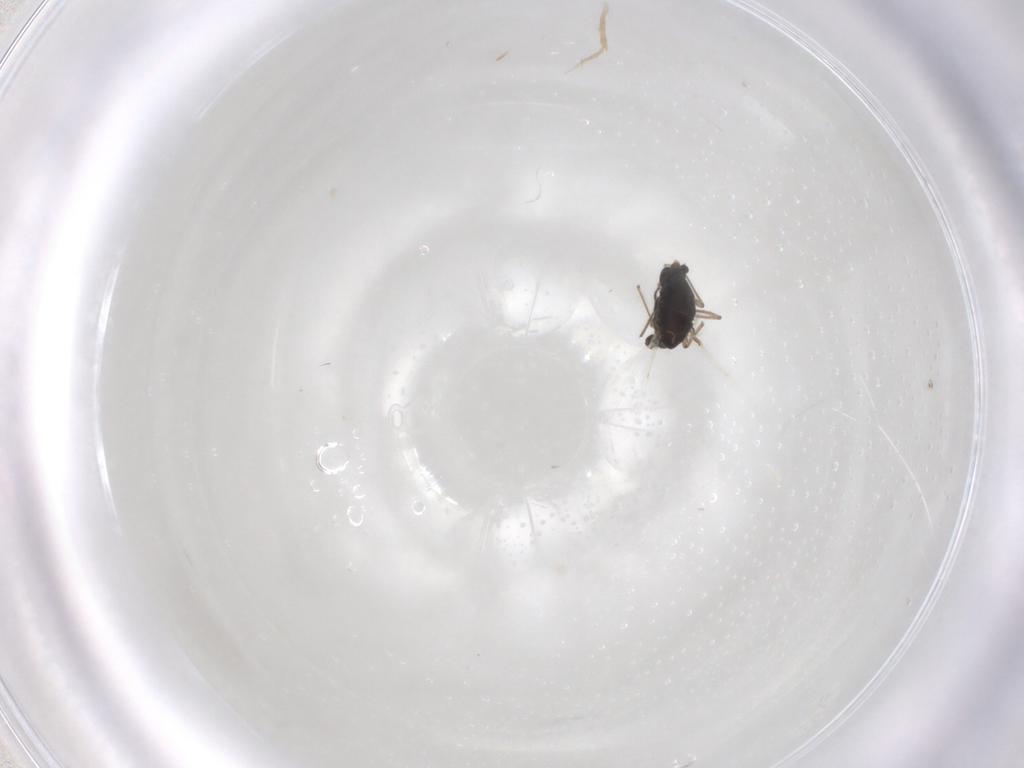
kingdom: Animalia
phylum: Arthropoda
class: Insecta
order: Diptera
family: Chironomidae
